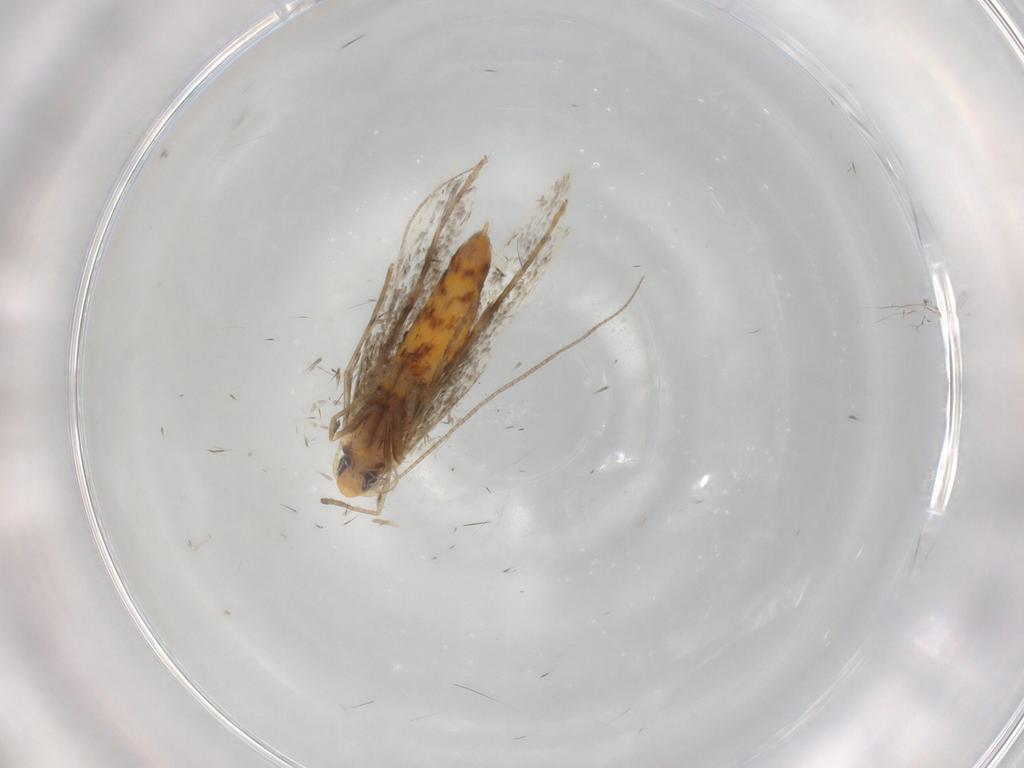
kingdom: Animalia
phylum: Arthropoda
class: Insecta
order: Lepidoptera
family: Gracillariidae
